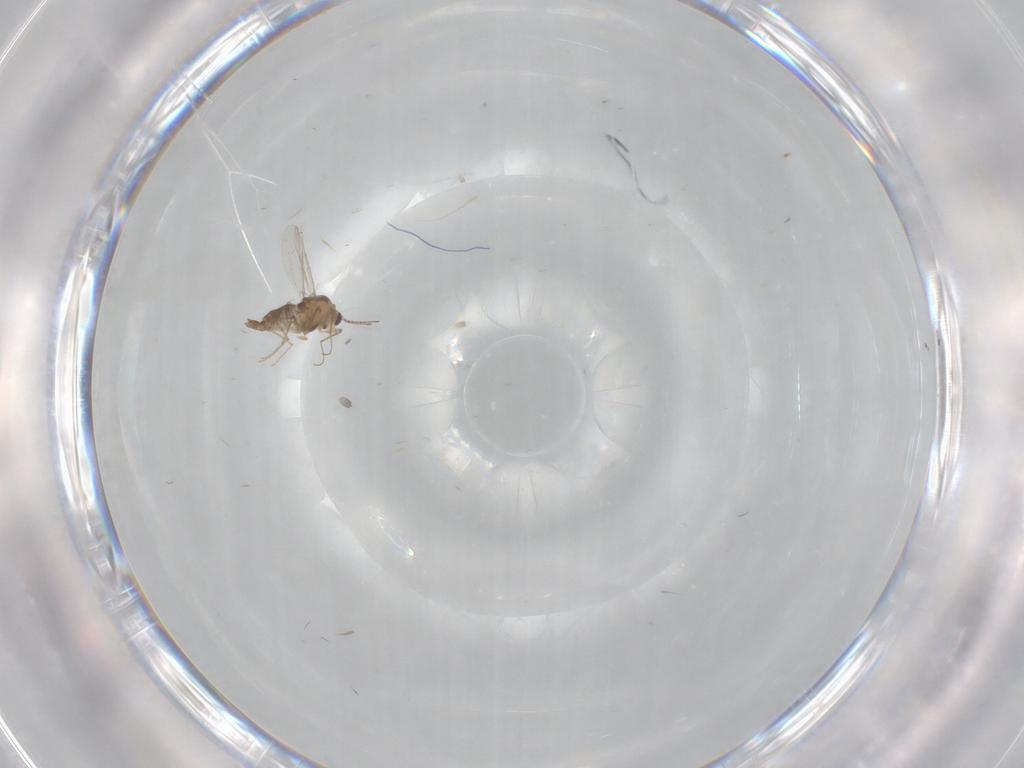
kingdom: Animalia
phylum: Arthropoda
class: Insecta
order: Diptera
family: Chironomidae
